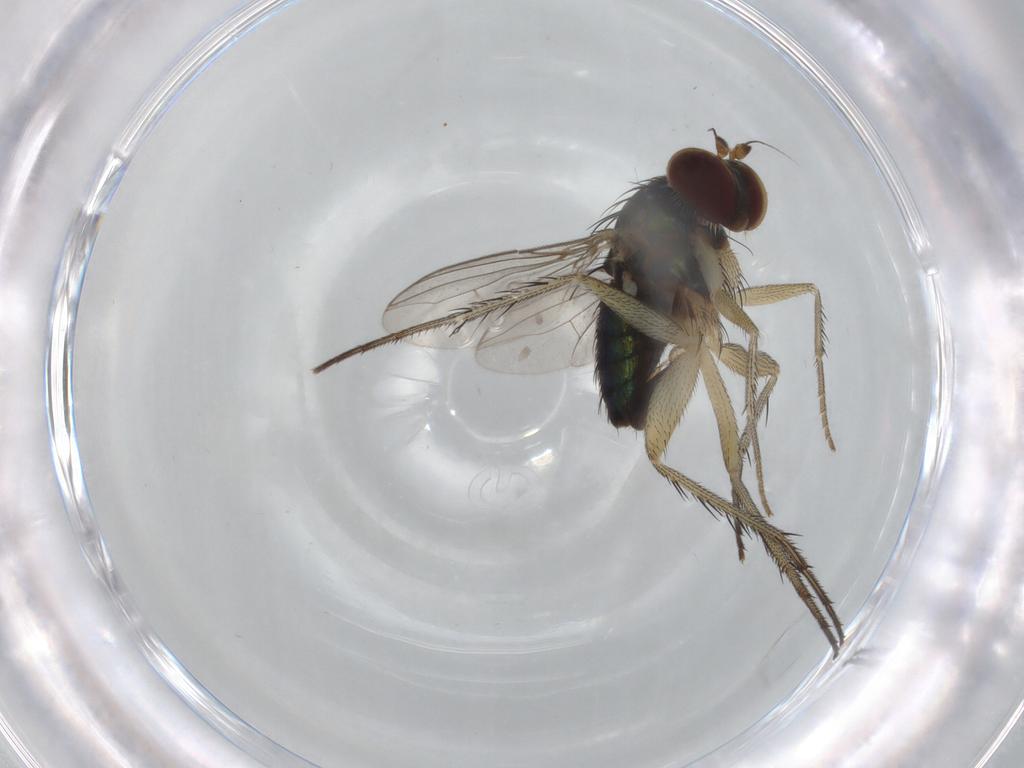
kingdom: Animalia
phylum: Arthropoda
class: Insecta
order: Diptera
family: Dolichopodidae
